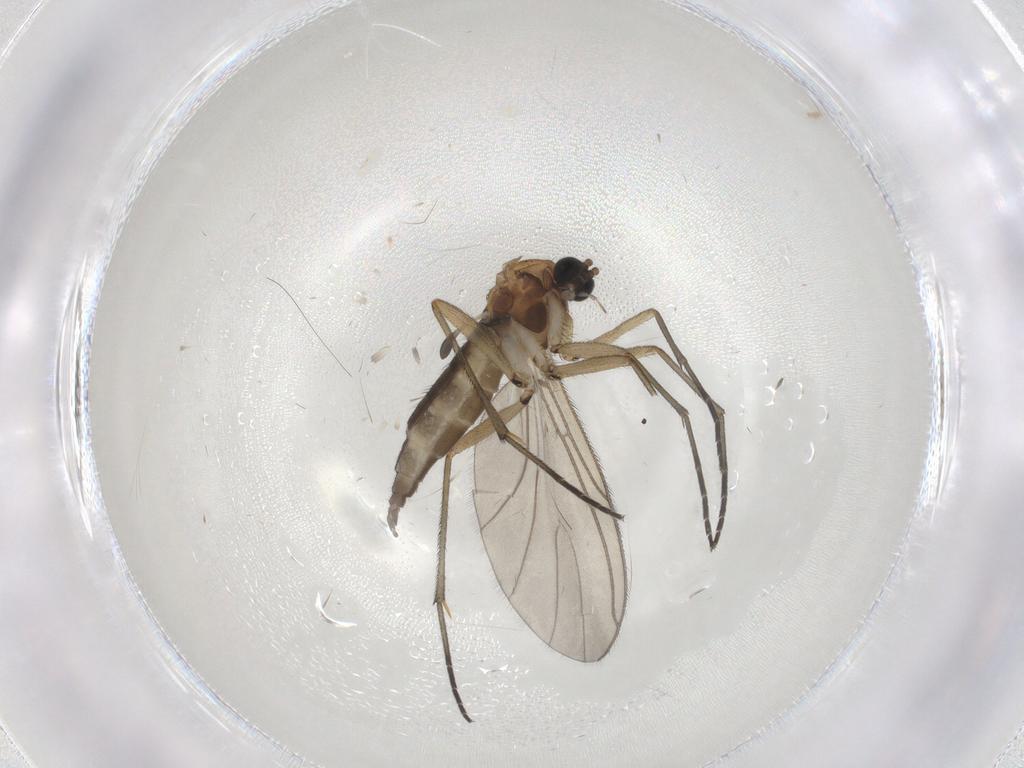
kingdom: Animalia
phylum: Arthropoda
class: Insecta
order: Diptera
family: Sciaridae
